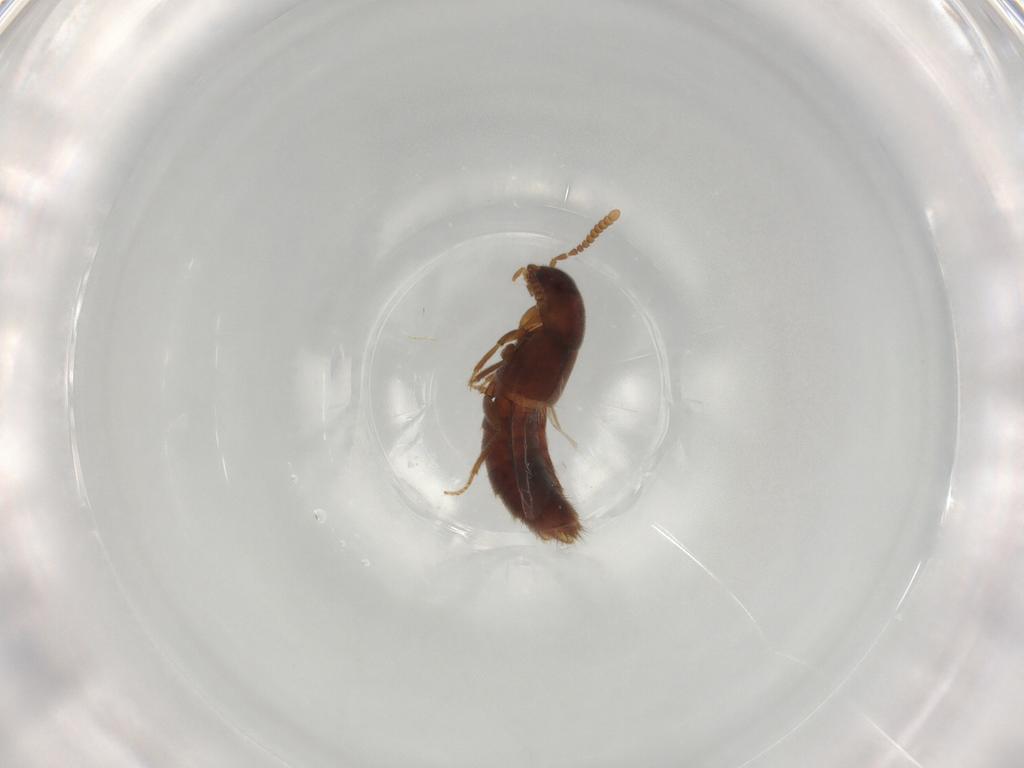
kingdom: Animalia
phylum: Arthropoda
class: Insecta
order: Coleoptera
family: Staphylinidae
